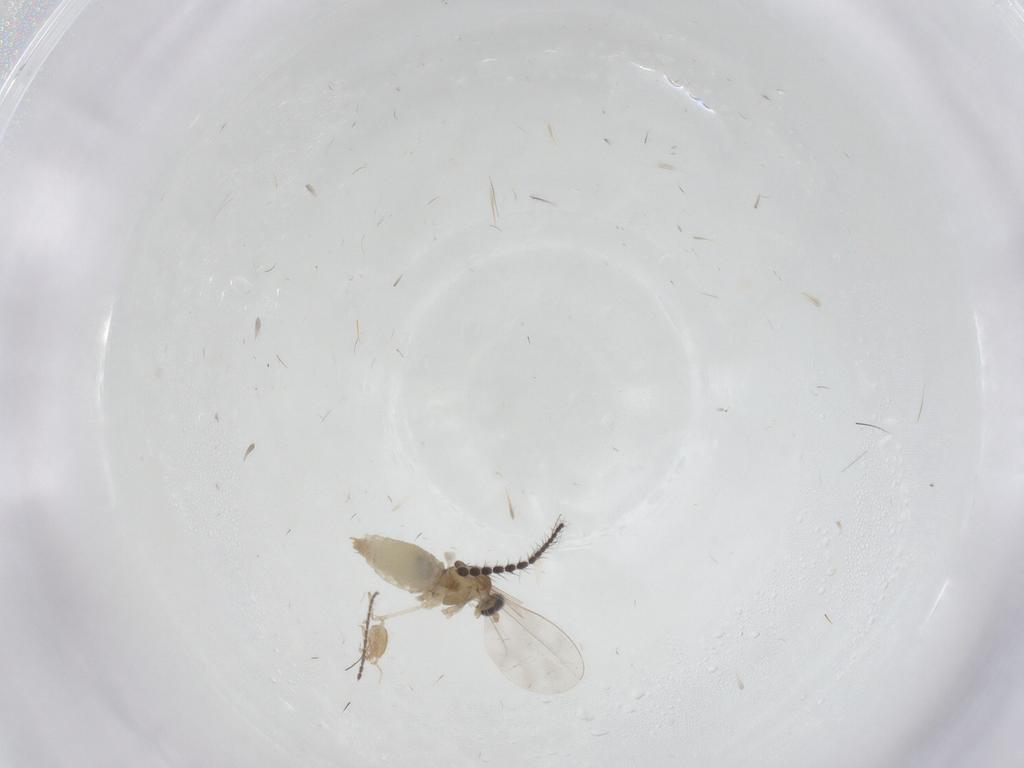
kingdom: Animalia
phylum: Arthropoda
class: Insecta
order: Diptera
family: Limoniidae
